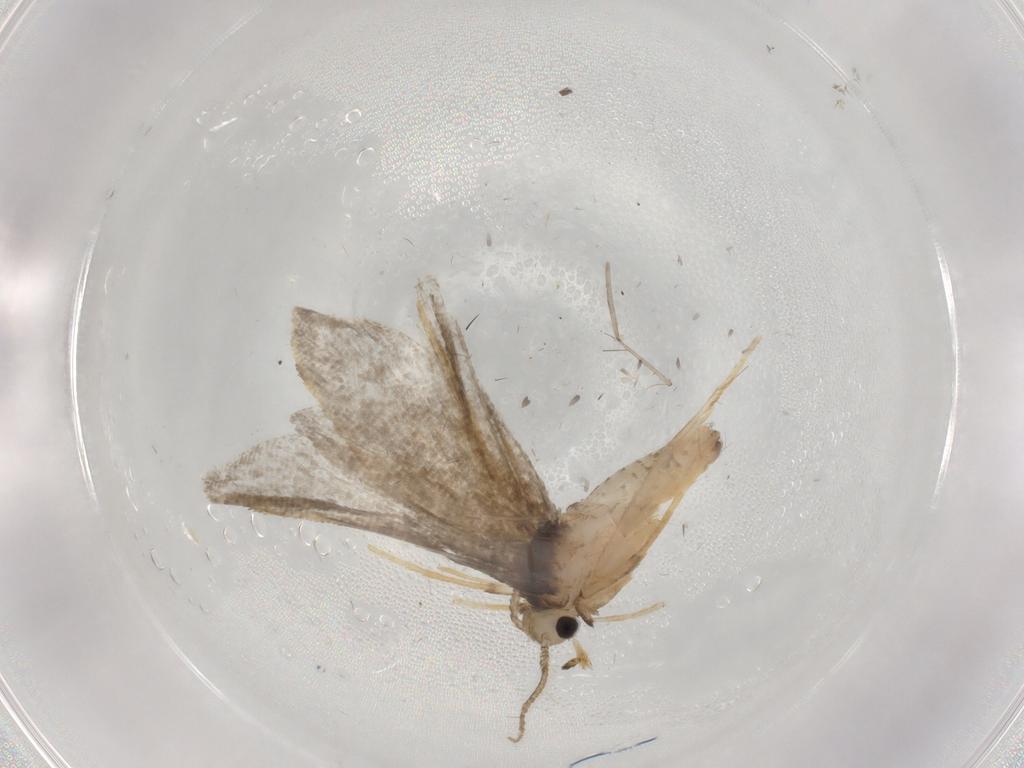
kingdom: Animalia
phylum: Arthropoda
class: Insecta
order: Lepidoptera
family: Psychidae
